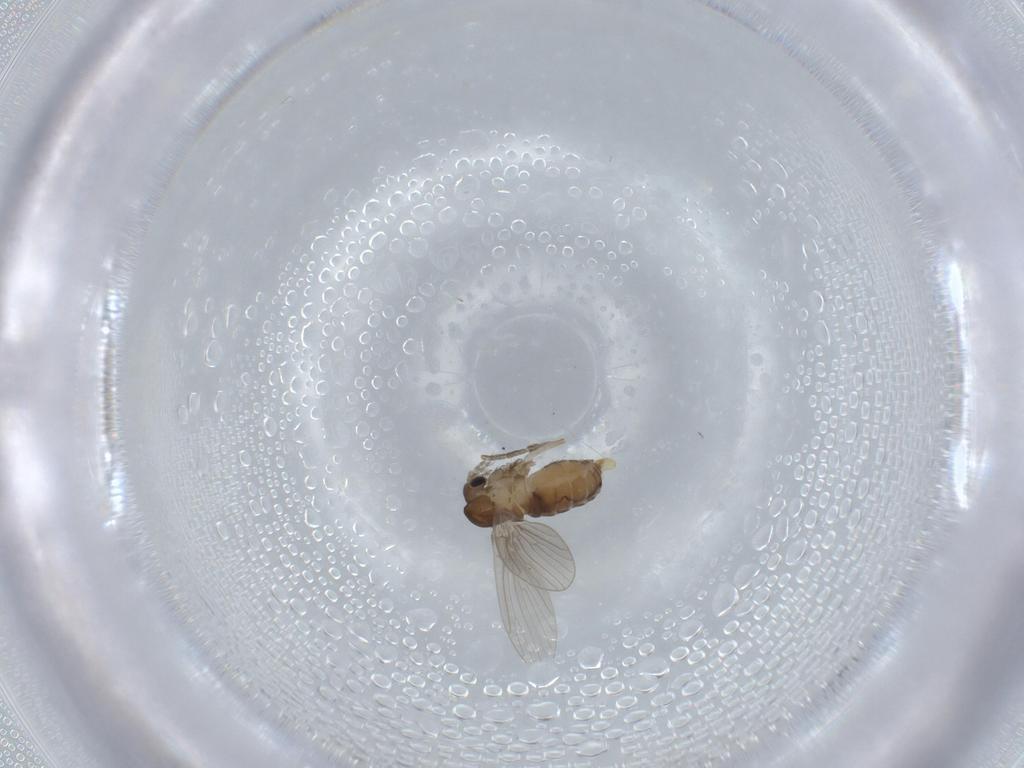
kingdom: Animalia
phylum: Arthropoda
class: Insecta
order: Diptera
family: Psychodidae
